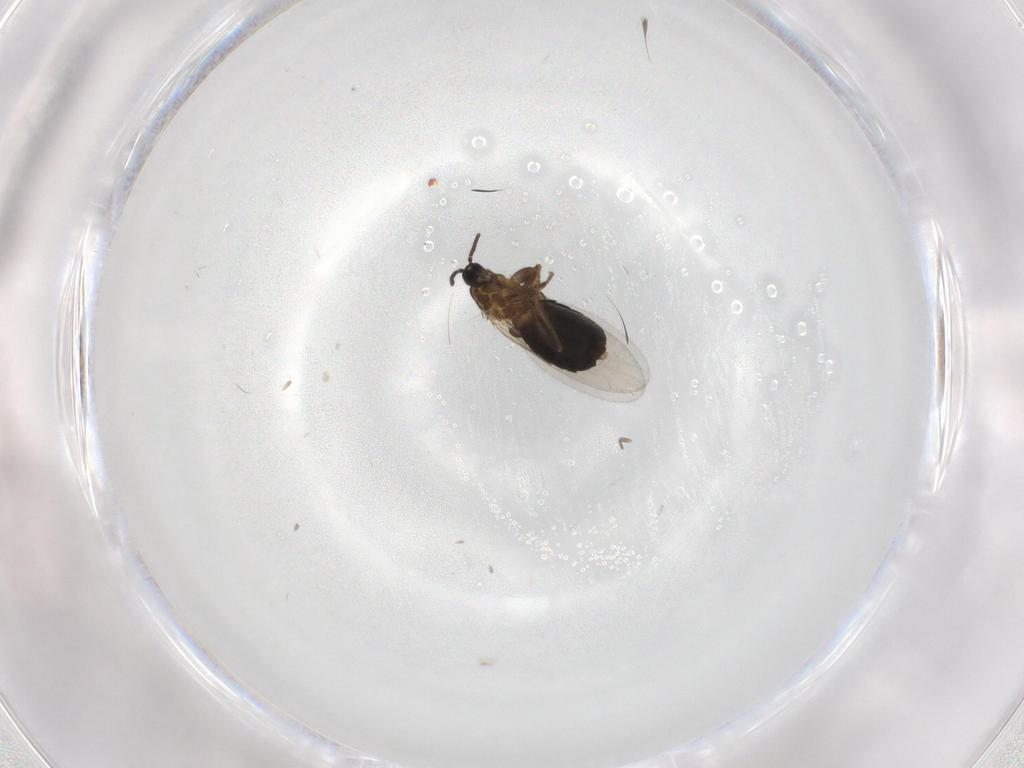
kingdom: Animalia
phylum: Arthropoda
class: Insecta
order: Diptera
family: Scatopsidae
